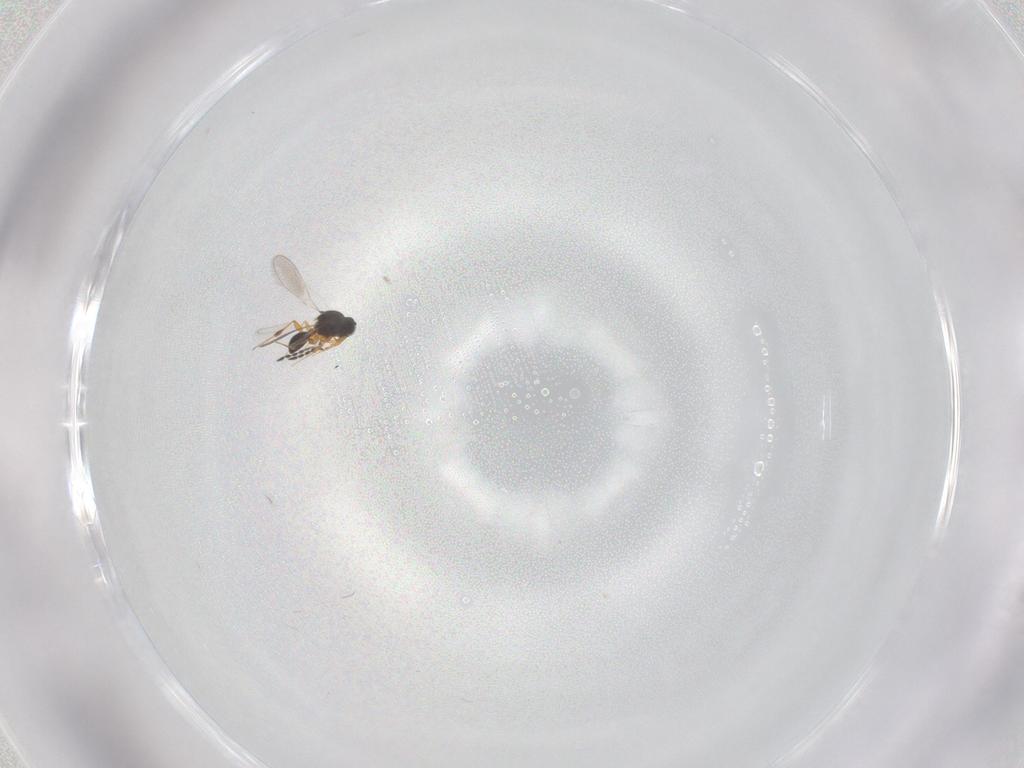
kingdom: Animalia
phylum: Arthropoda
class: Insecta
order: Hymenoptera
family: Platygastridae
